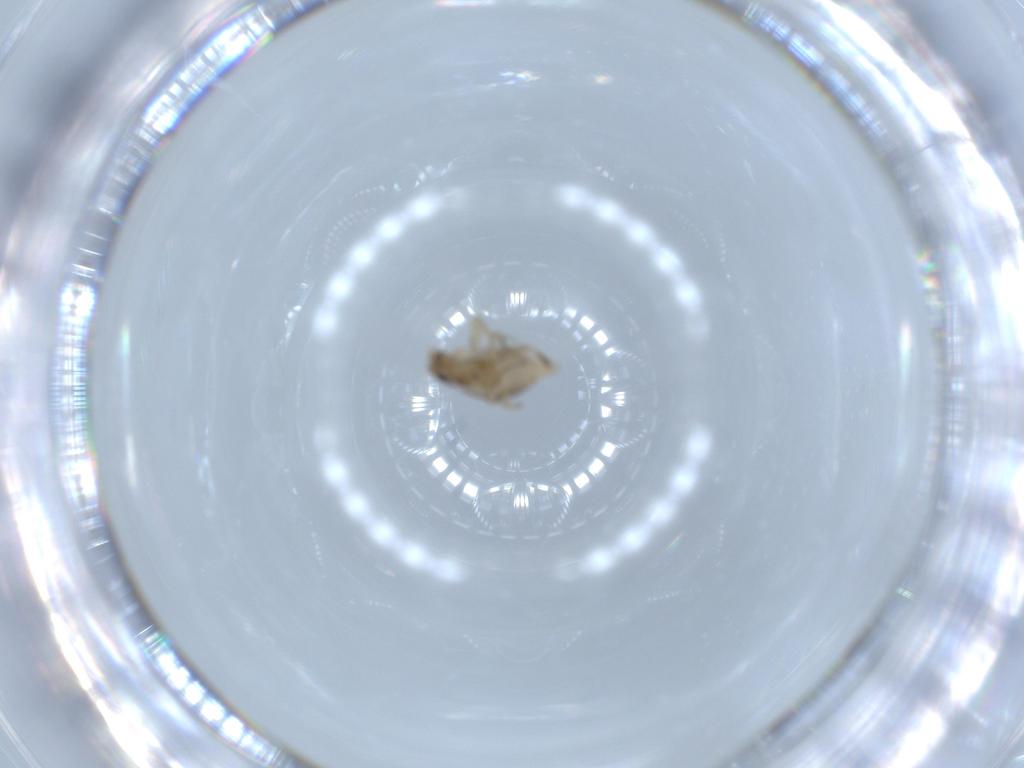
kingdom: Animalia
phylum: Arthropoda
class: Insecta
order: Diptera
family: Phoridae
